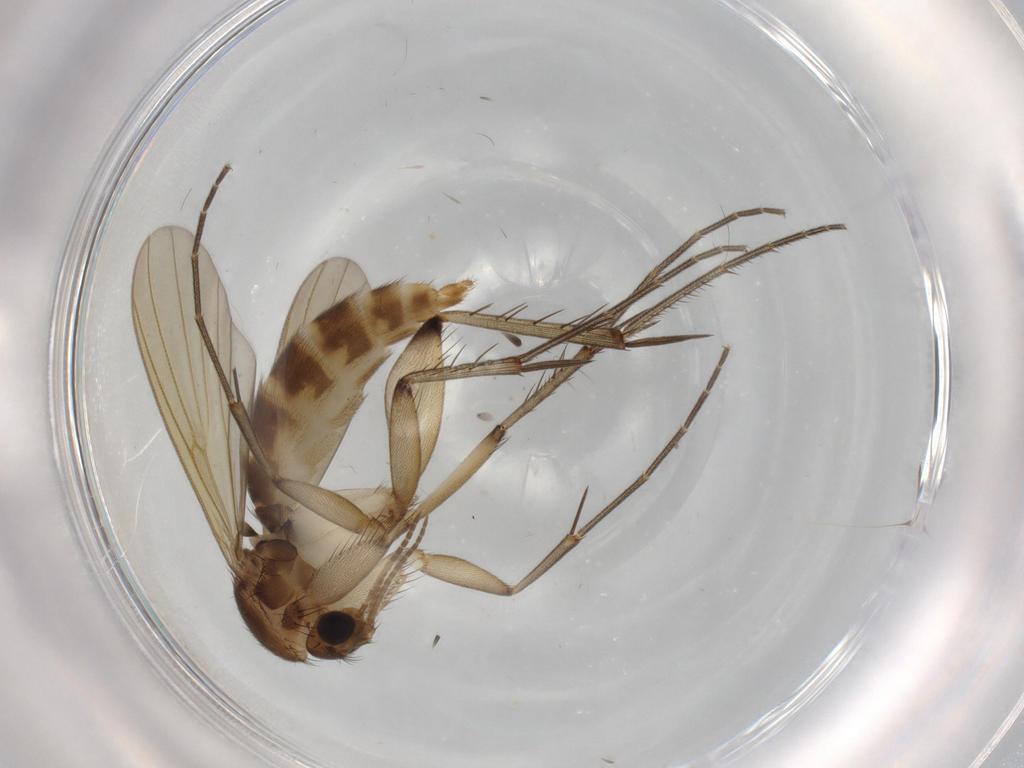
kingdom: Animalia
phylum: Arthropoda
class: Insecta
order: Diptera
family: Mycetophilidae
